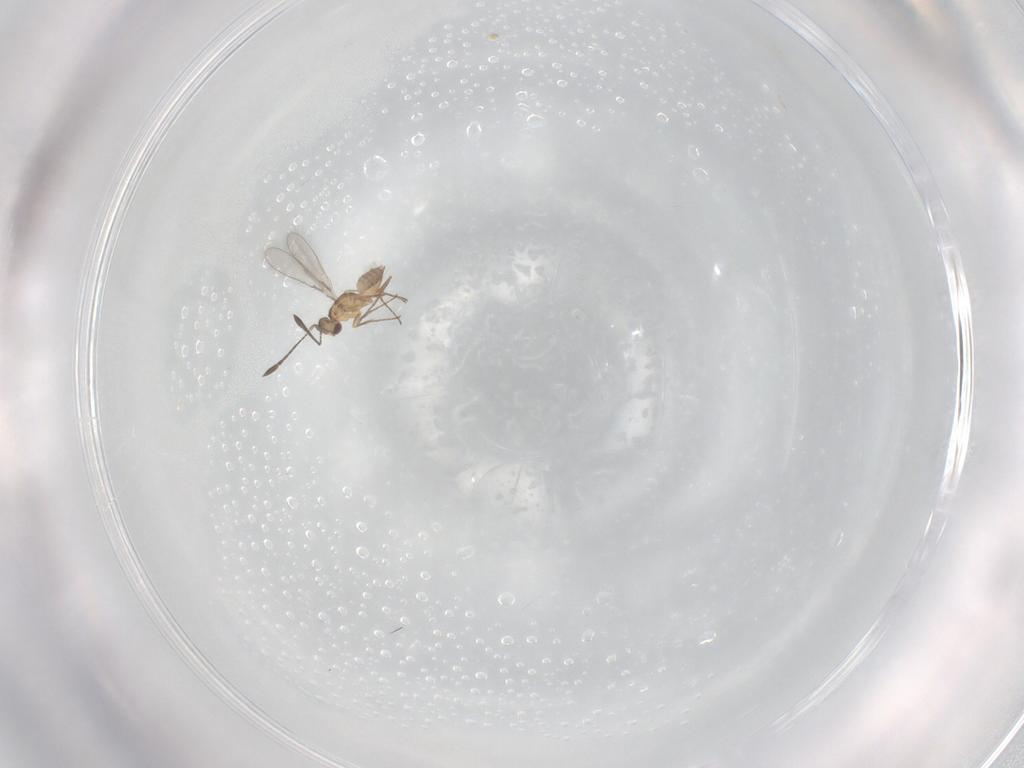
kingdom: Animalia
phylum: Arthropoda
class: Insecta
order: Hymenoptera
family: Mymaridae
